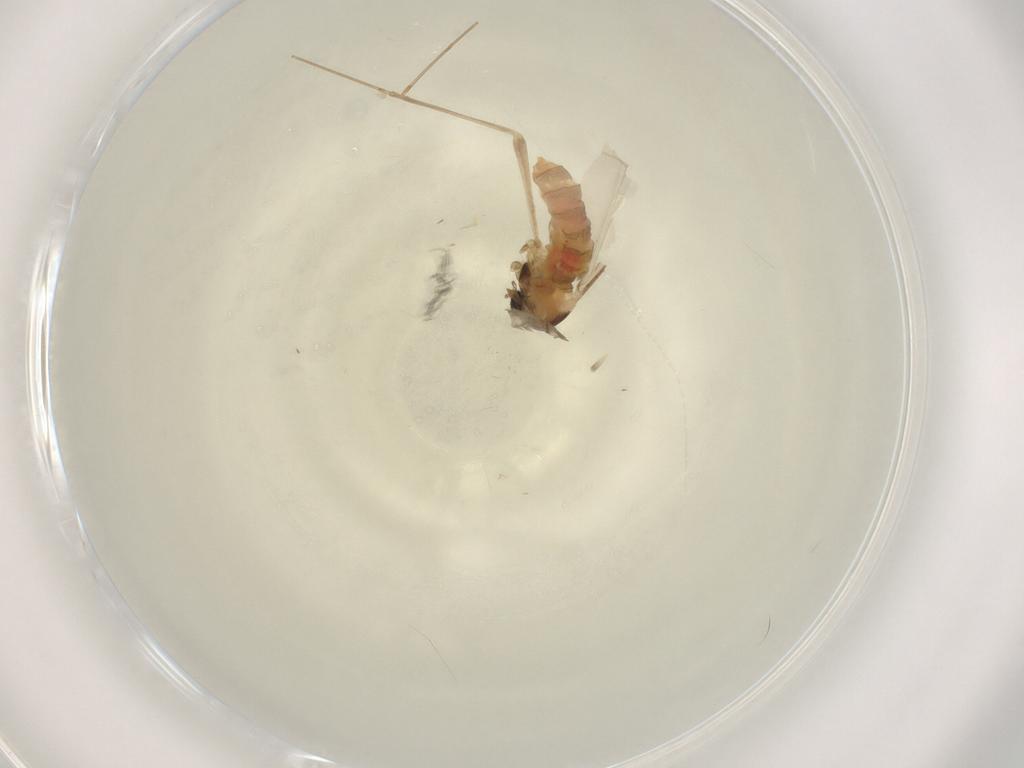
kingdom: Animalia
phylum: Arthropoda
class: Insecta
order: Diptera
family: Cecidomyiidae
